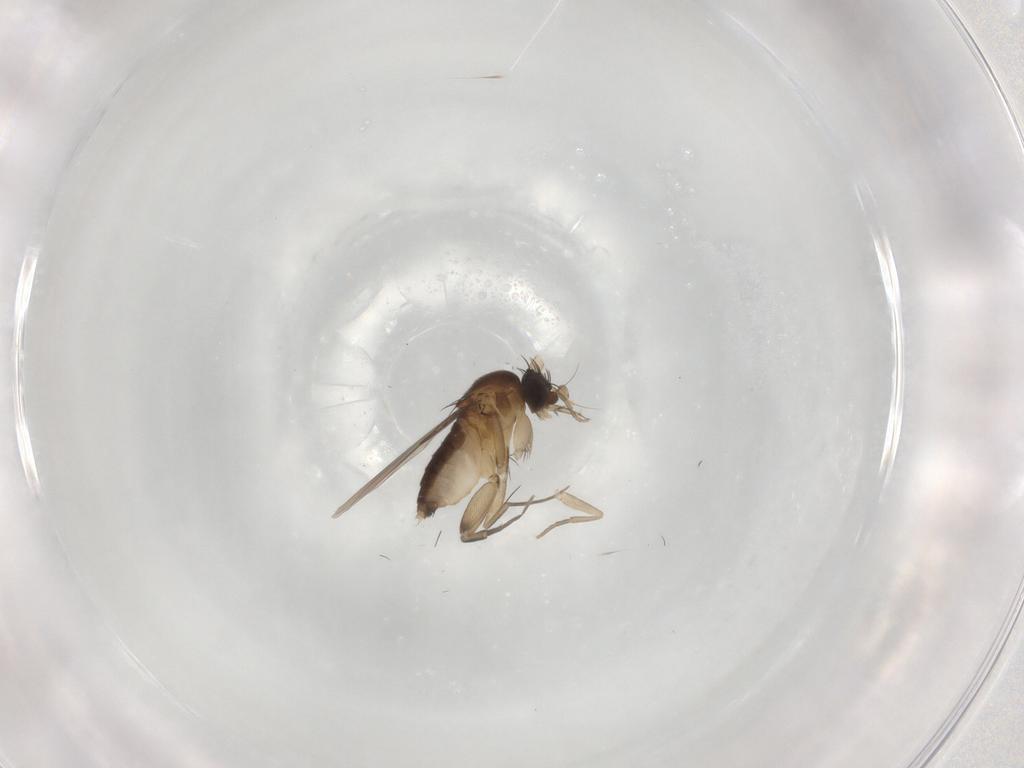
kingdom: Animalia
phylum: Arthropoda
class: Insecta
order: Diptera
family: Phoridae
